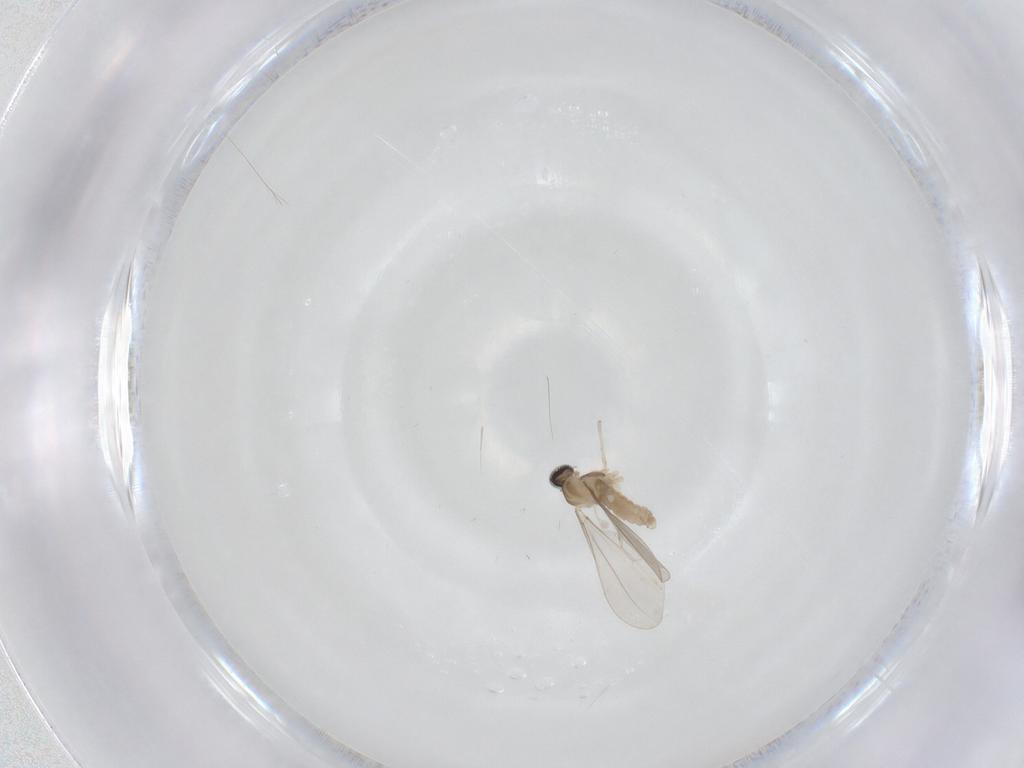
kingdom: Animalia
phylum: Arthropoda
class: Insecta
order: Diptera
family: Cecidomyiidae
